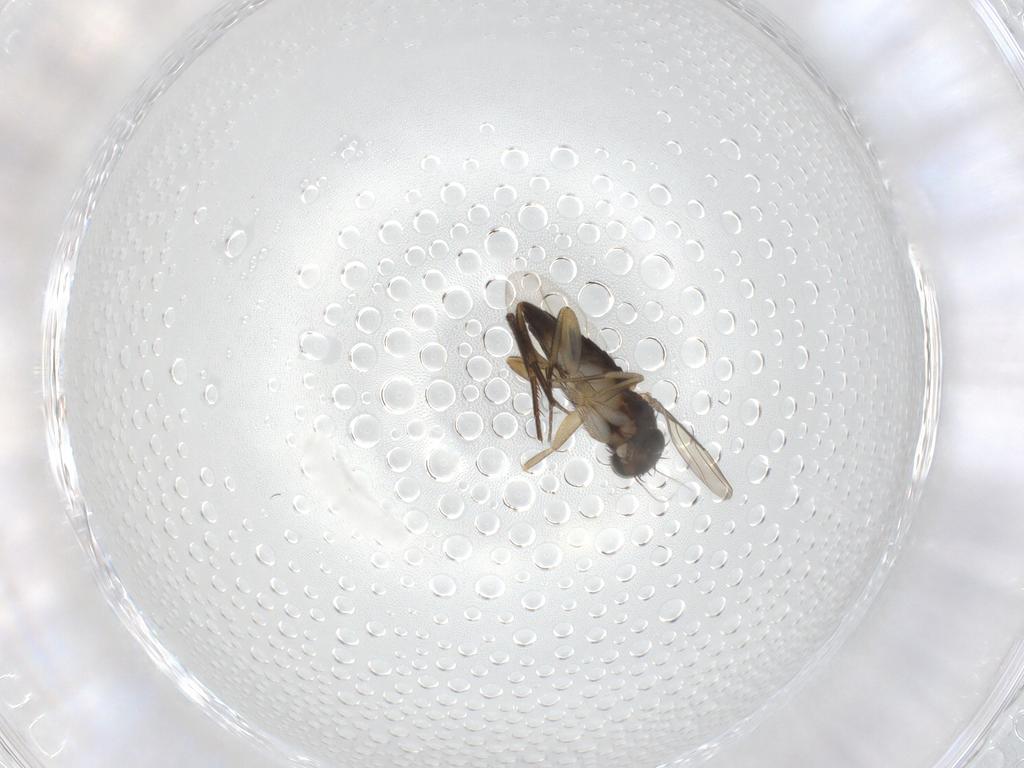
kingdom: Animalia
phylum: Arthropoda
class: Insecta
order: Diptera
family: Phoridae
